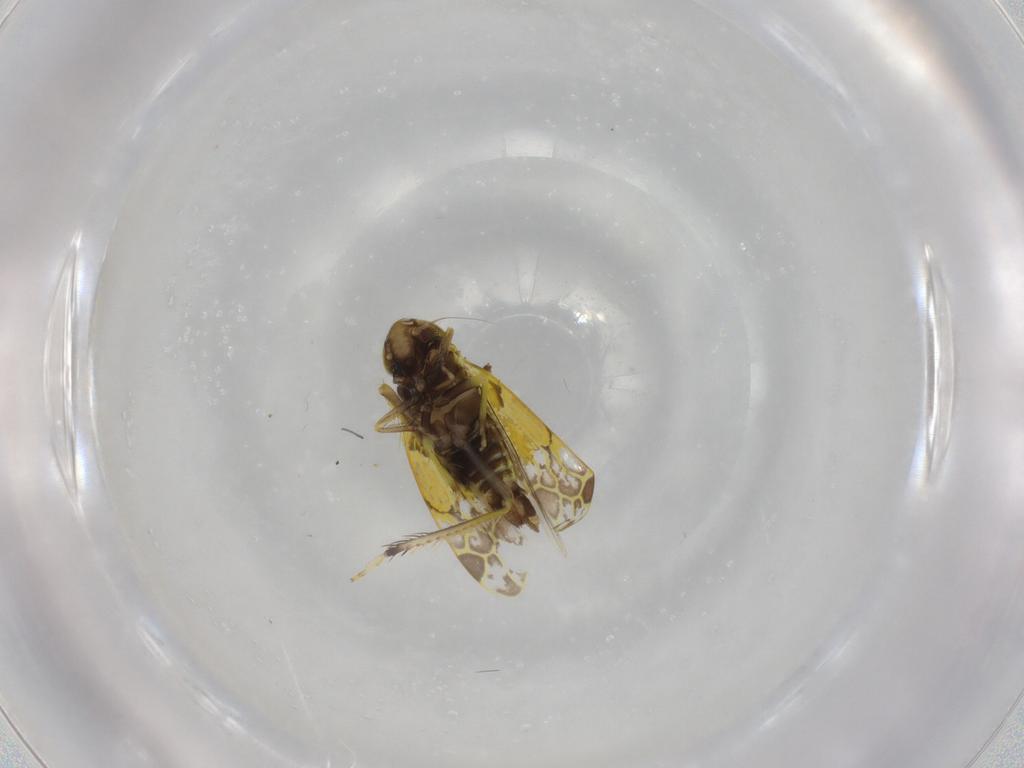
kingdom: Animalia
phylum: Arthropoda
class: Insecta
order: Hemiptera
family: Cicadellidae
